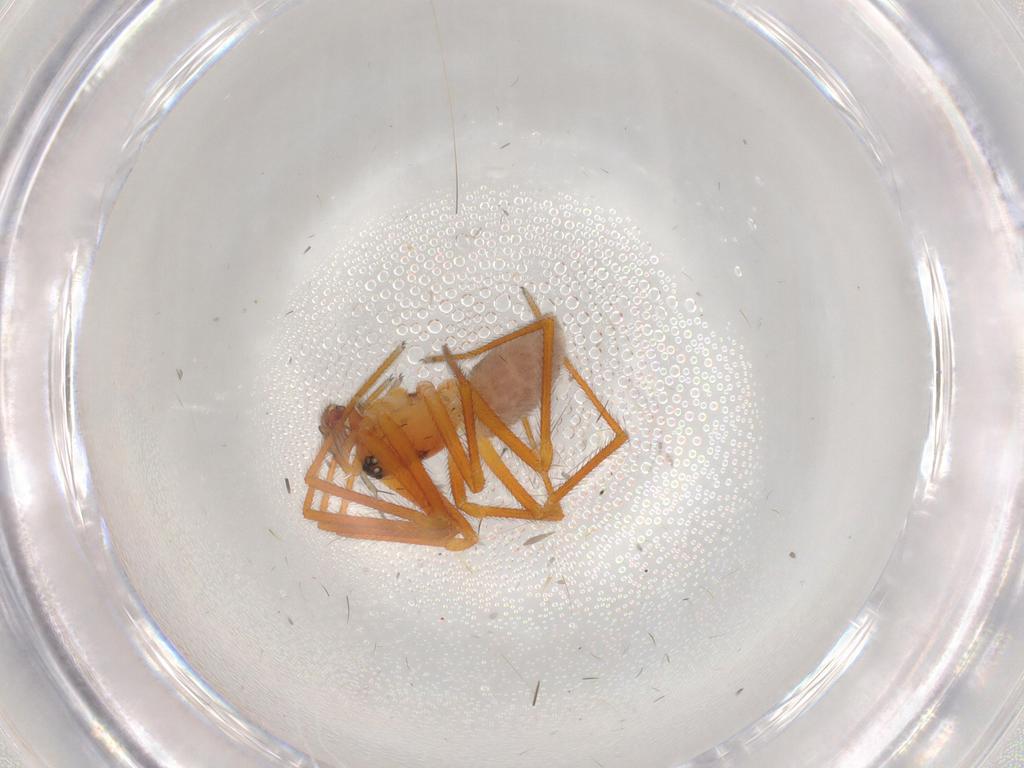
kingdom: Animalia
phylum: Arthropoda
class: Arachnida
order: Araneae
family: Linyphiidae
